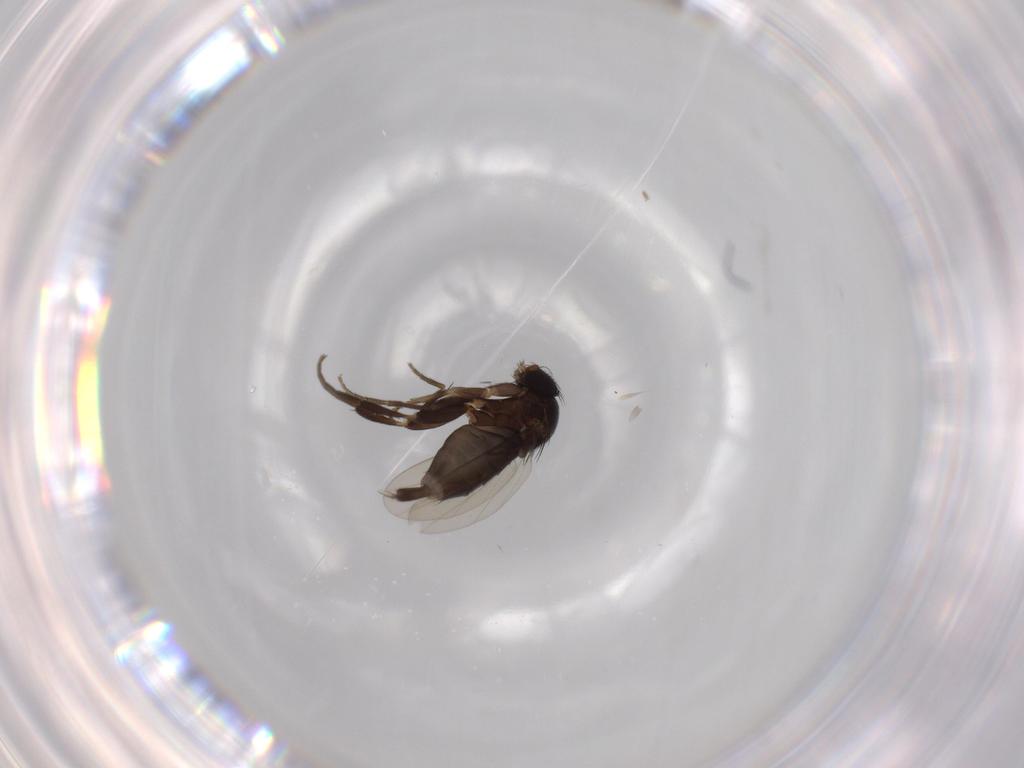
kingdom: Animalia
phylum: Arthropoda
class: Insecta
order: Diptera
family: Phoridae
